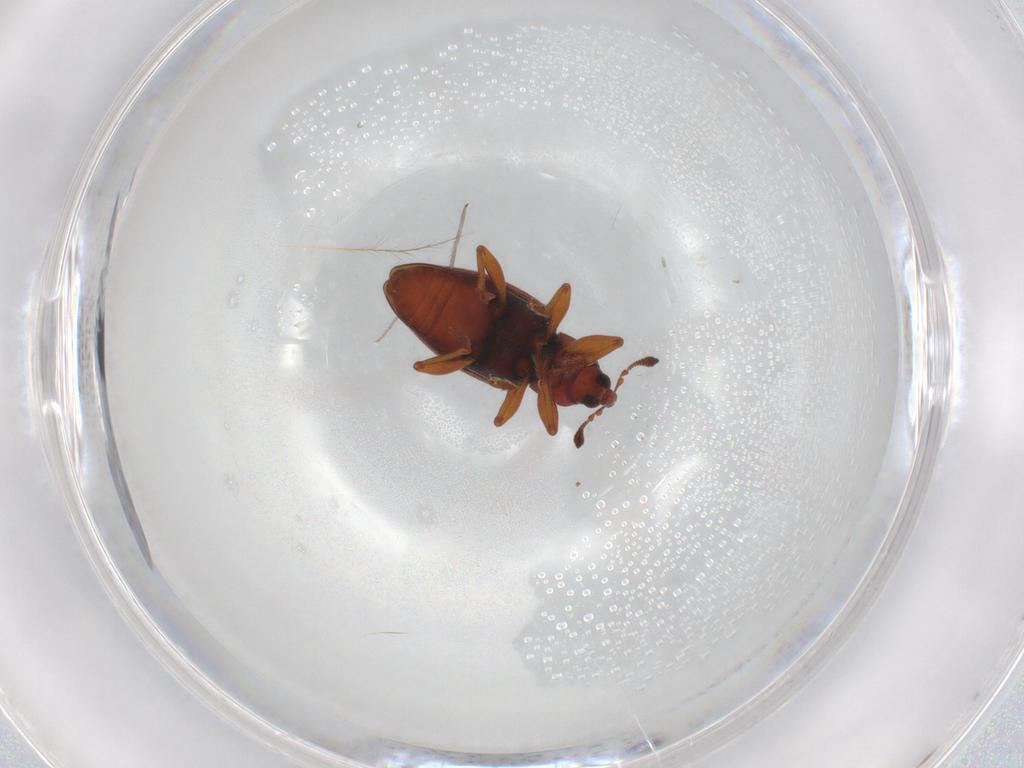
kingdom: Animalia
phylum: Arthropoda
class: Insecta
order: Coleoptera
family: Curculionidae
